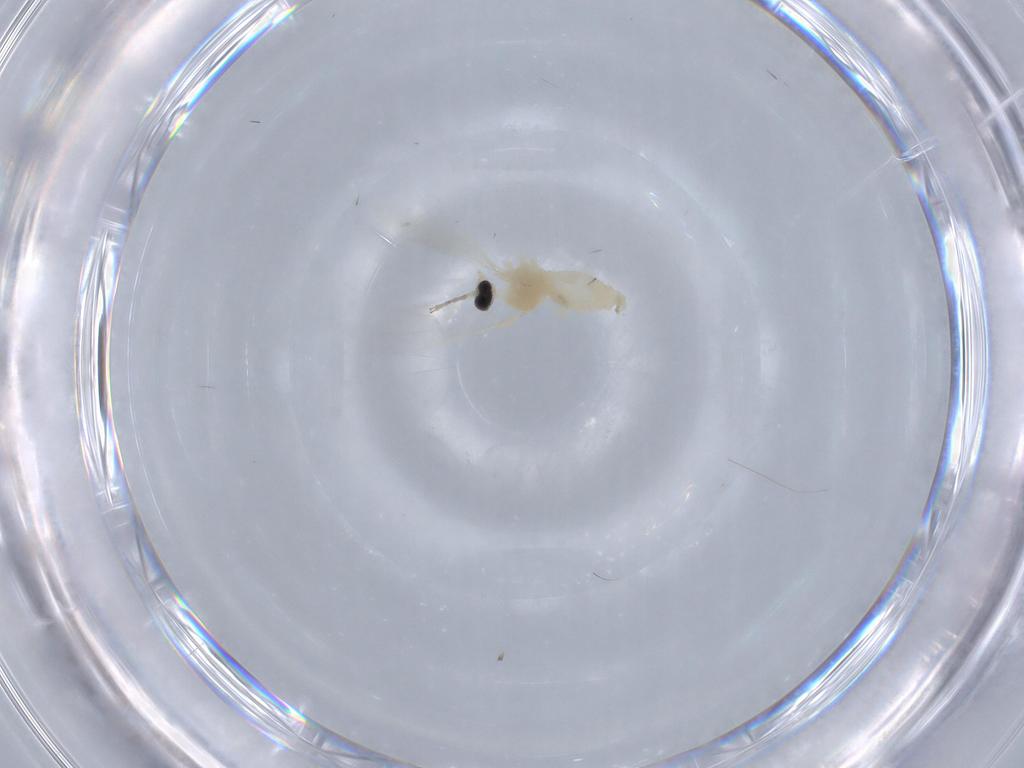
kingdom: Animalia
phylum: Arthropoda
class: Insecta
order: Diptera
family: Cecidomyiidae
